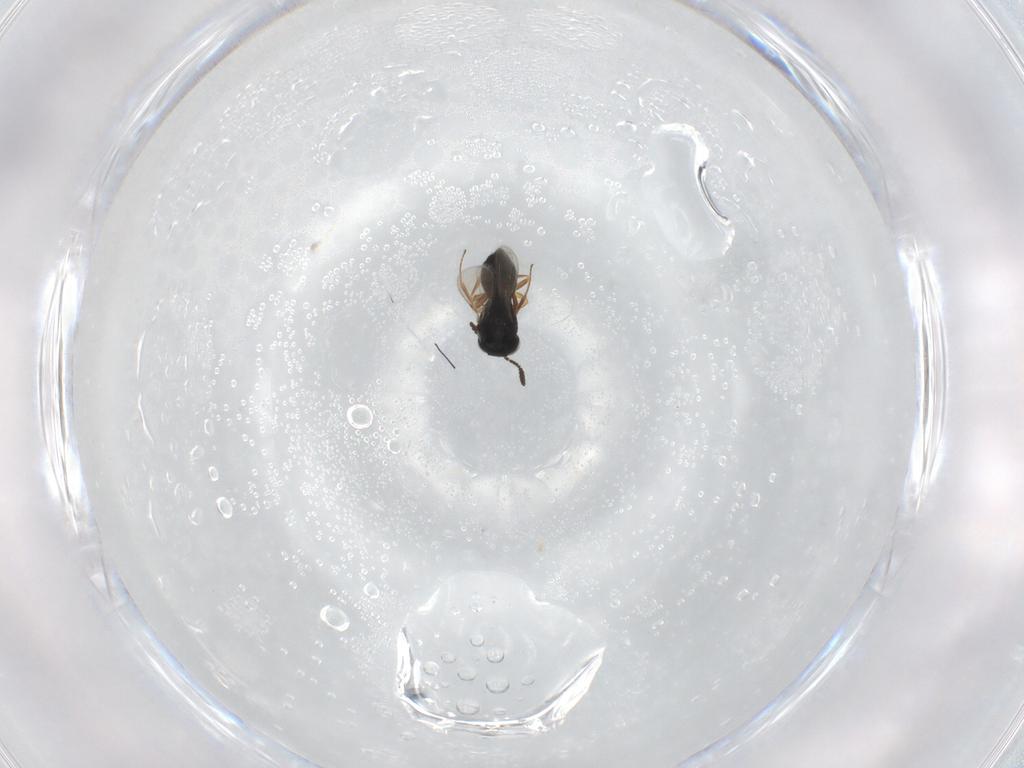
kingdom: Animalia
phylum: Arthropoda
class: Insecta
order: Hymenoptera
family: Scelionidae
